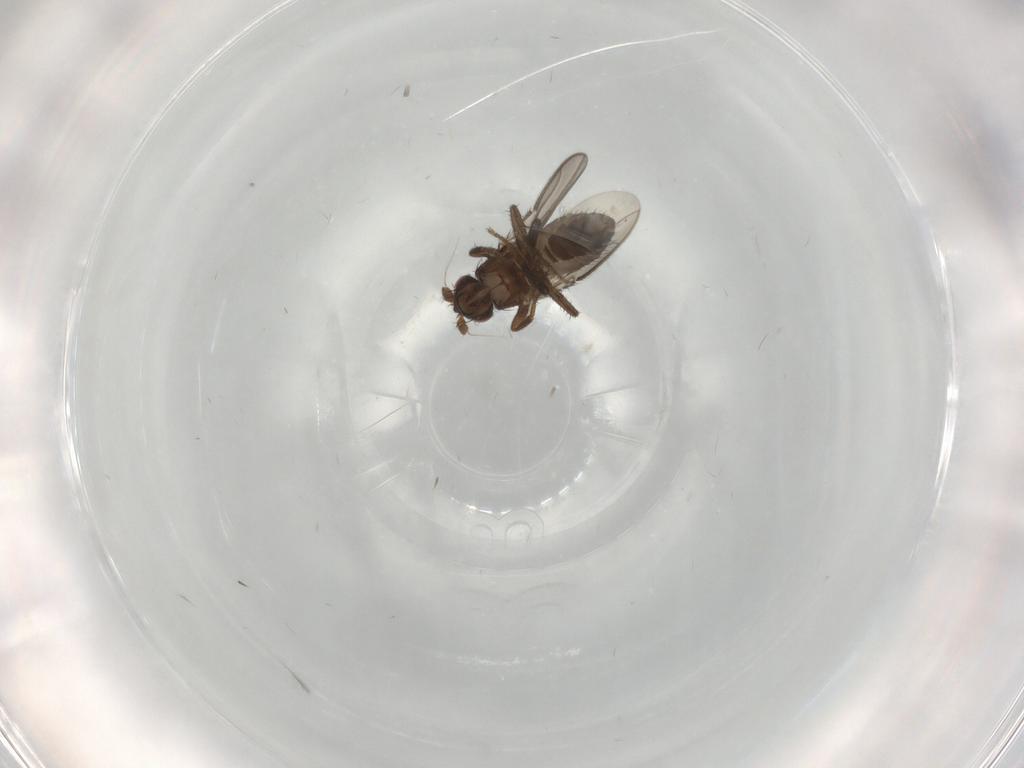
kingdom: Animalia
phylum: Arthropoda
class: Insecta
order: Diptera
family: Sphaeroceridae
